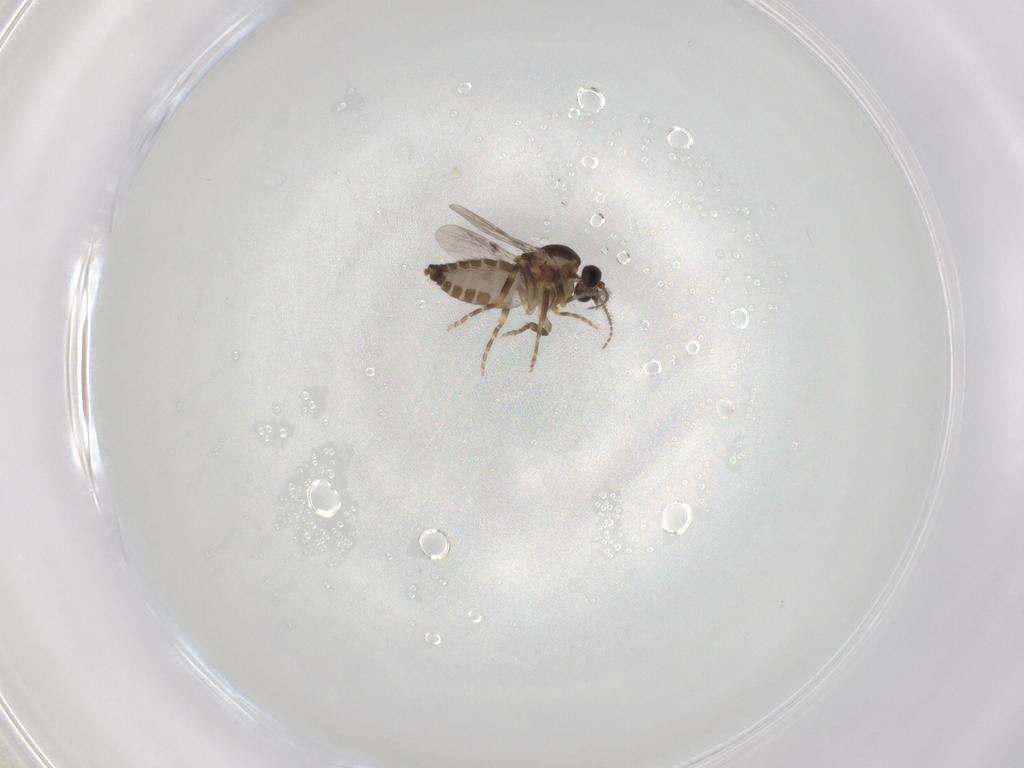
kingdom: Animalia
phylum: Arthropoda
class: Insecta
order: Diptera
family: Ceratopogonidae
